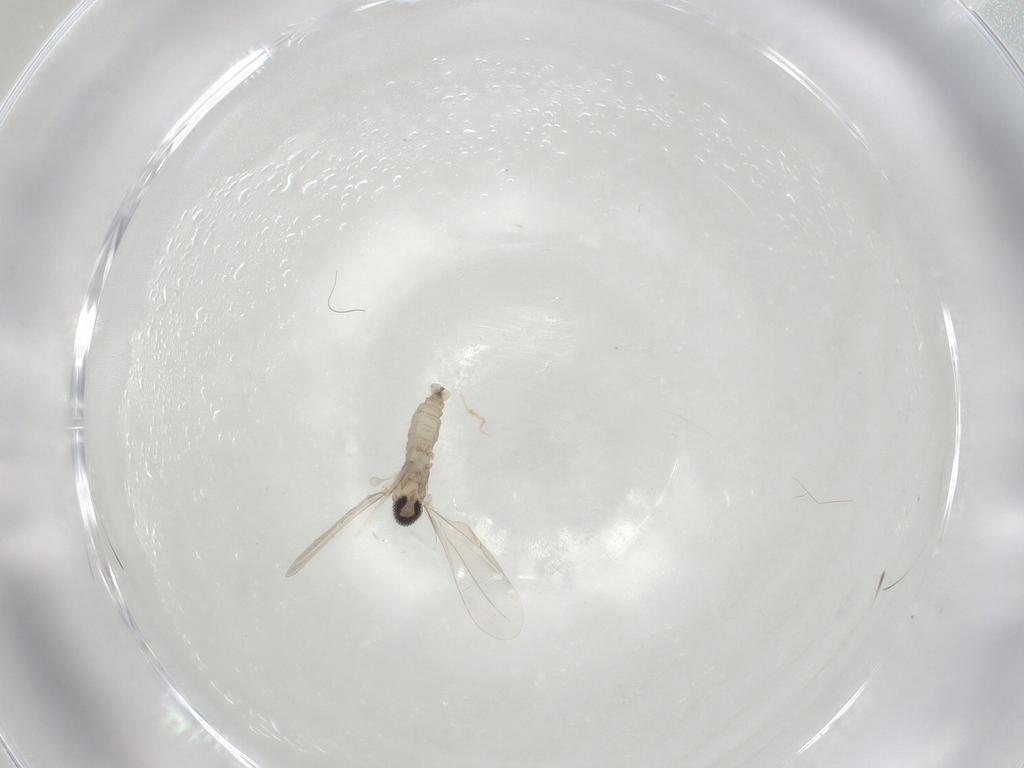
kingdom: Animalia
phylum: Arthropoda
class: Insecta
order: Diptera
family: Cecidomyiidae
